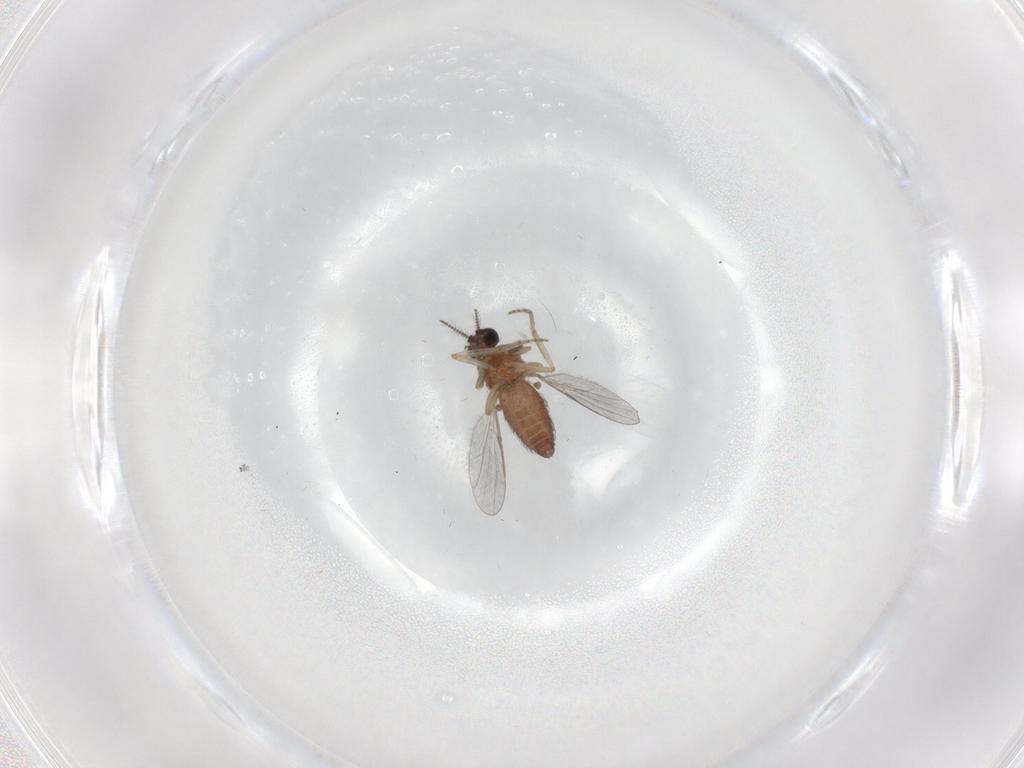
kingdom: Animalia
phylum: Arthropoda
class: Insecta
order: Diptera
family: Ceratopogonidae
